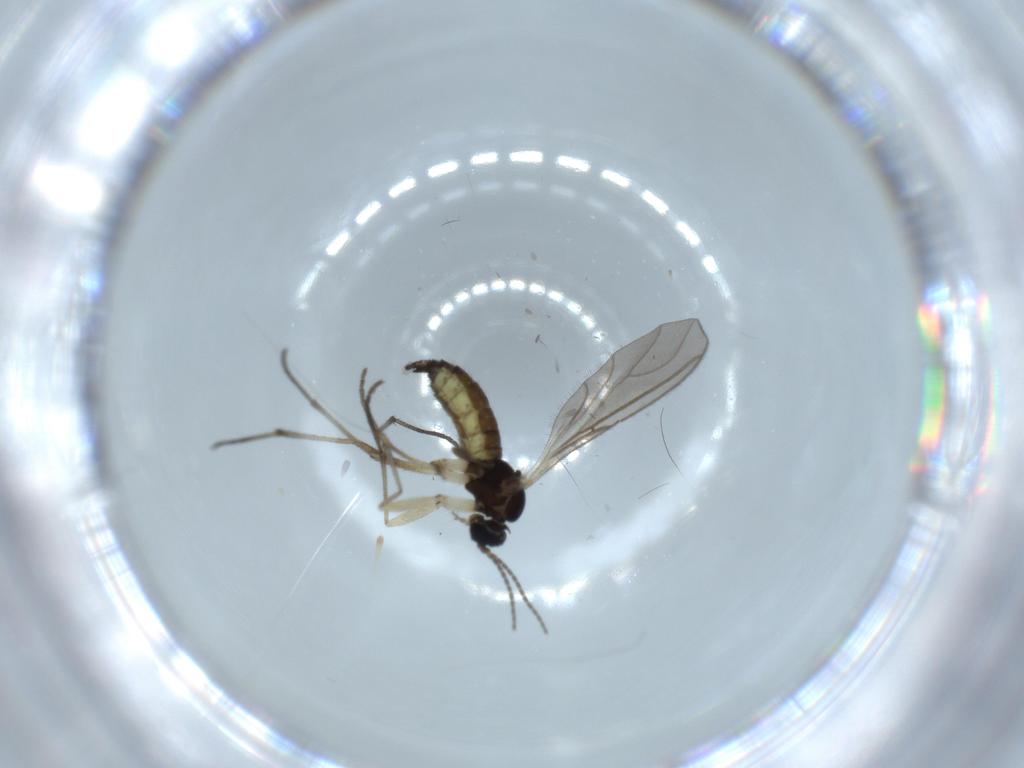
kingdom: Animalia
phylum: Arthropoda
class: Insecta
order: Diptera
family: Sciaridae
